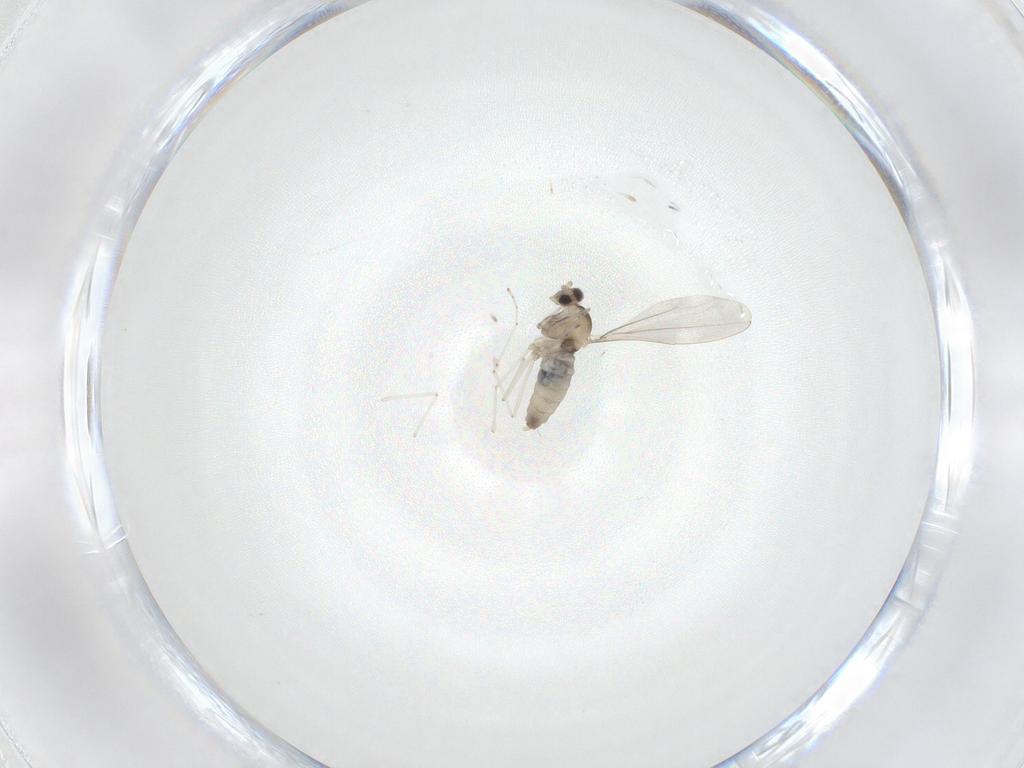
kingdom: Animalia
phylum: Arthropoda
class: Insecta
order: Diptera
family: Cecidomyiidae
